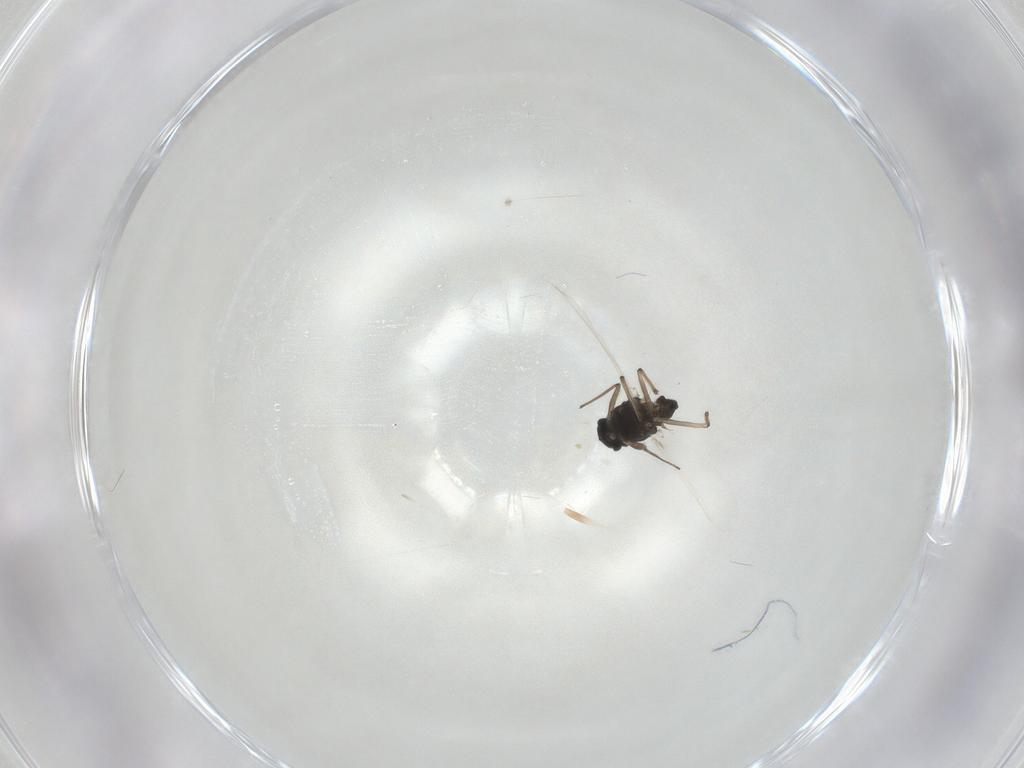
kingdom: Animalia
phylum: Arthropoda
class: Insecta
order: Diptera
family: Chironomidae
